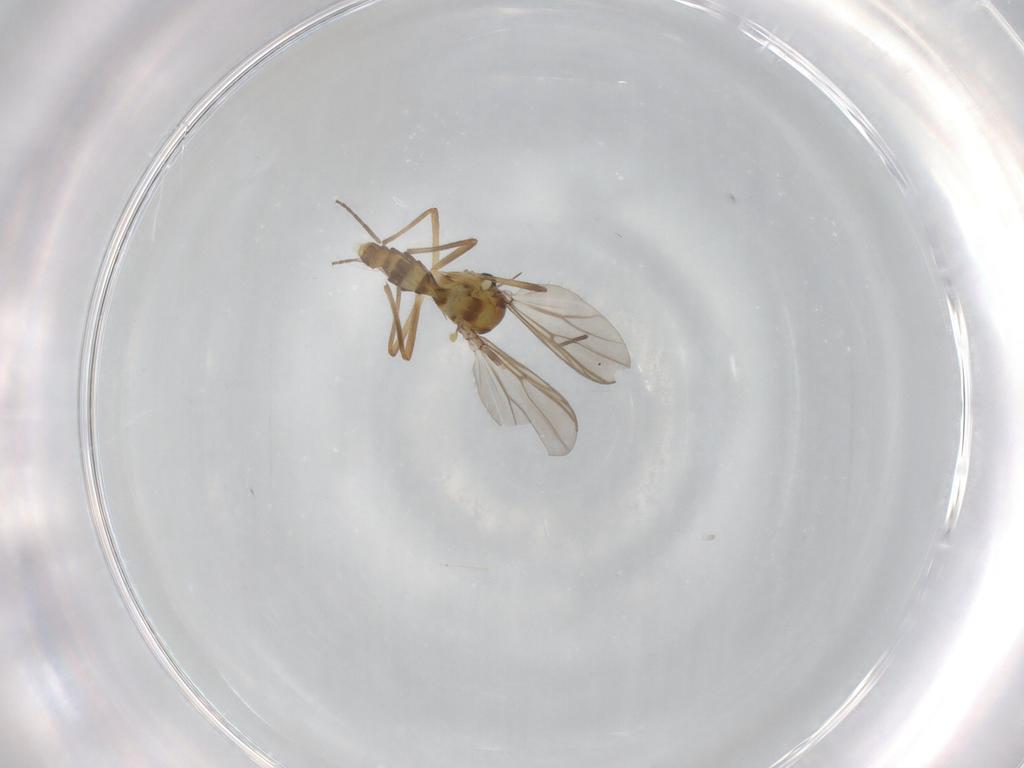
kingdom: Animalia
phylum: Arthropoda
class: Insecta
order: Diptera
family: Chironomidae
